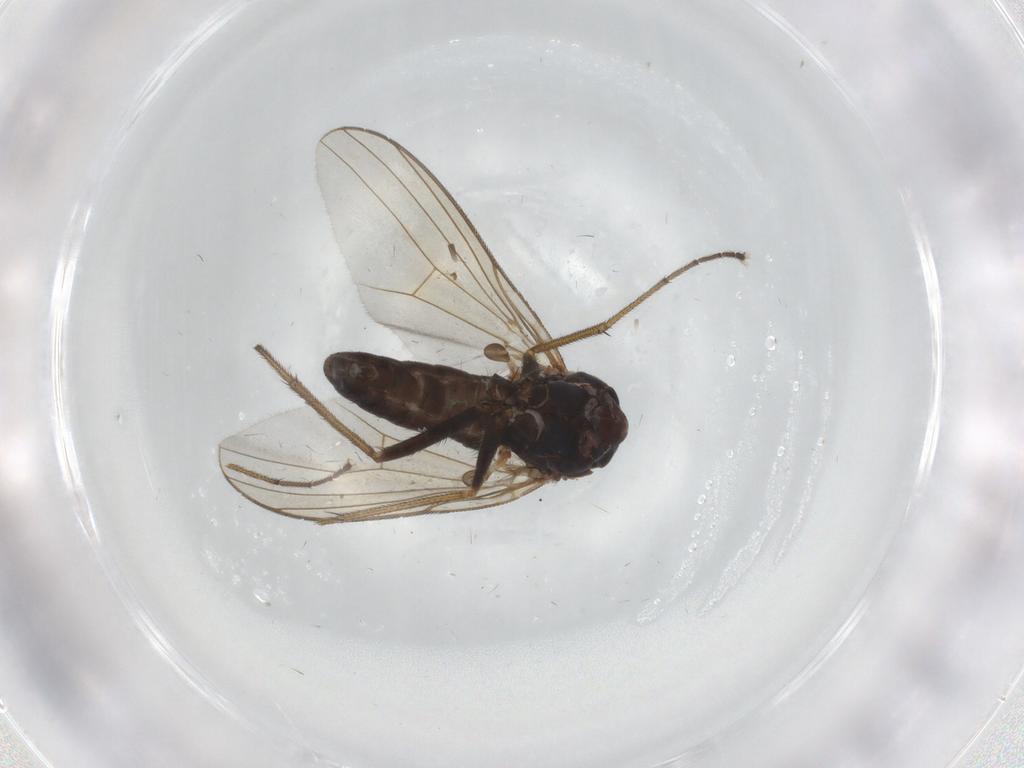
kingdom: Animalia
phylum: Arthropoda
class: Insecta
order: Diptera
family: Dolichopodidae
